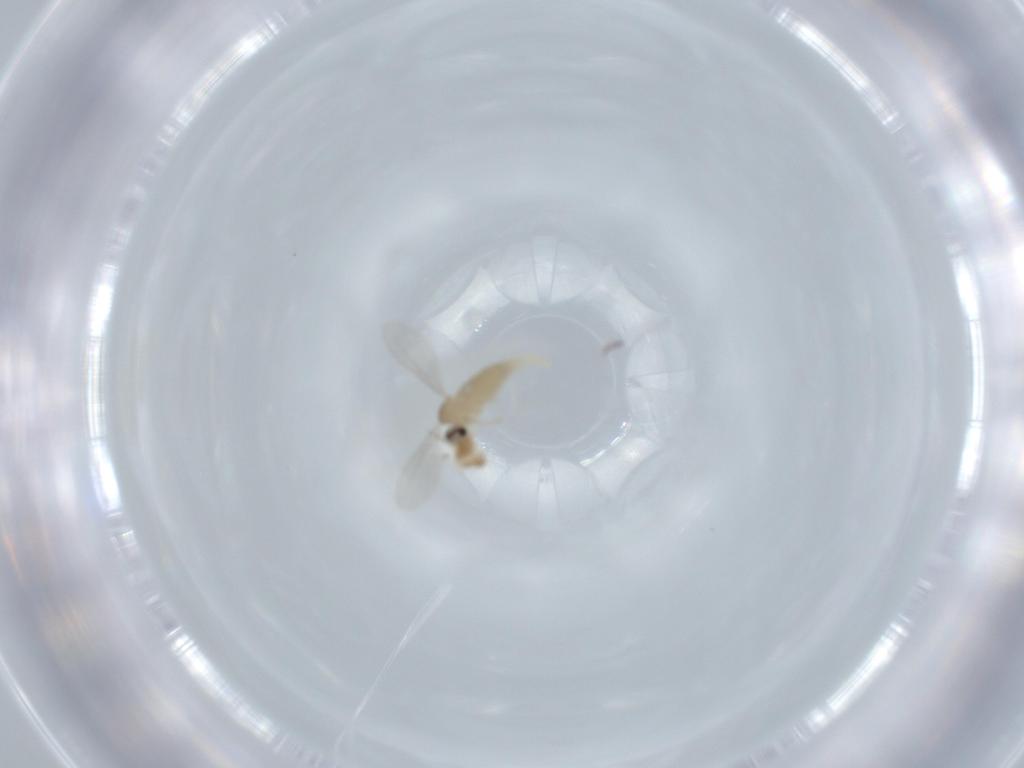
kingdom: Animalia
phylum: Arthropoda
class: Insecta
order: Diptera
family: Cecidomyiidae
